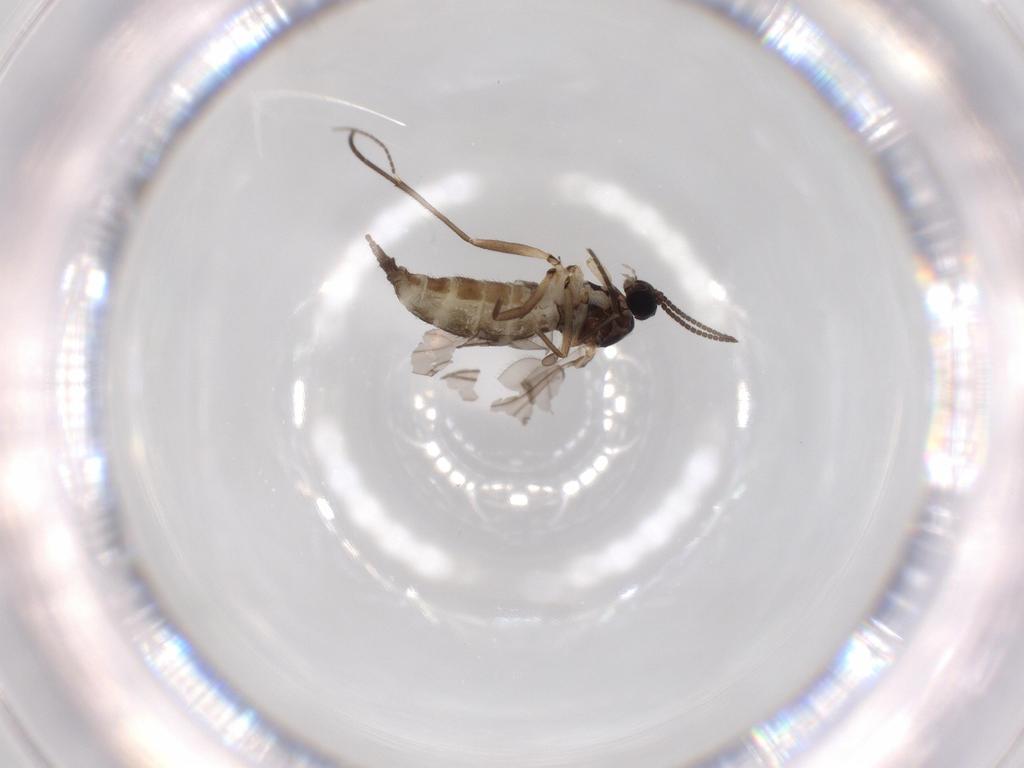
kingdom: Animalia
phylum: Arthropoda
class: Insecta
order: Diptera
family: Sciaridae
